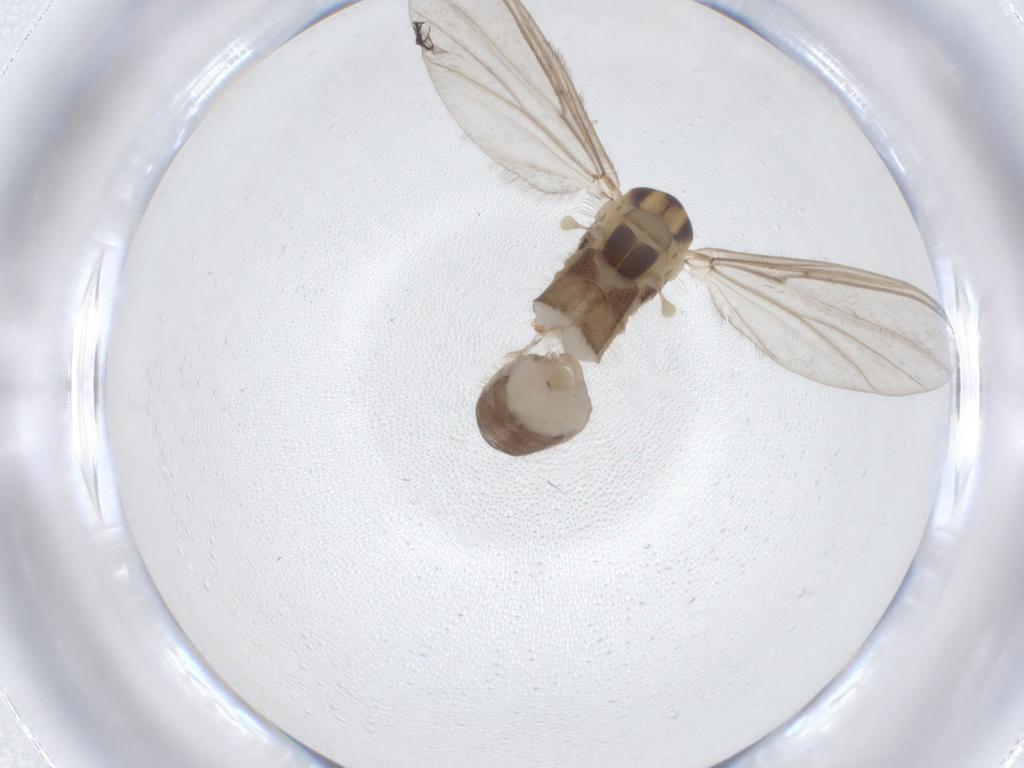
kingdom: Animalia
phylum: Arthropoda
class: Insecta
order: Diptera
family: Chironomidae
